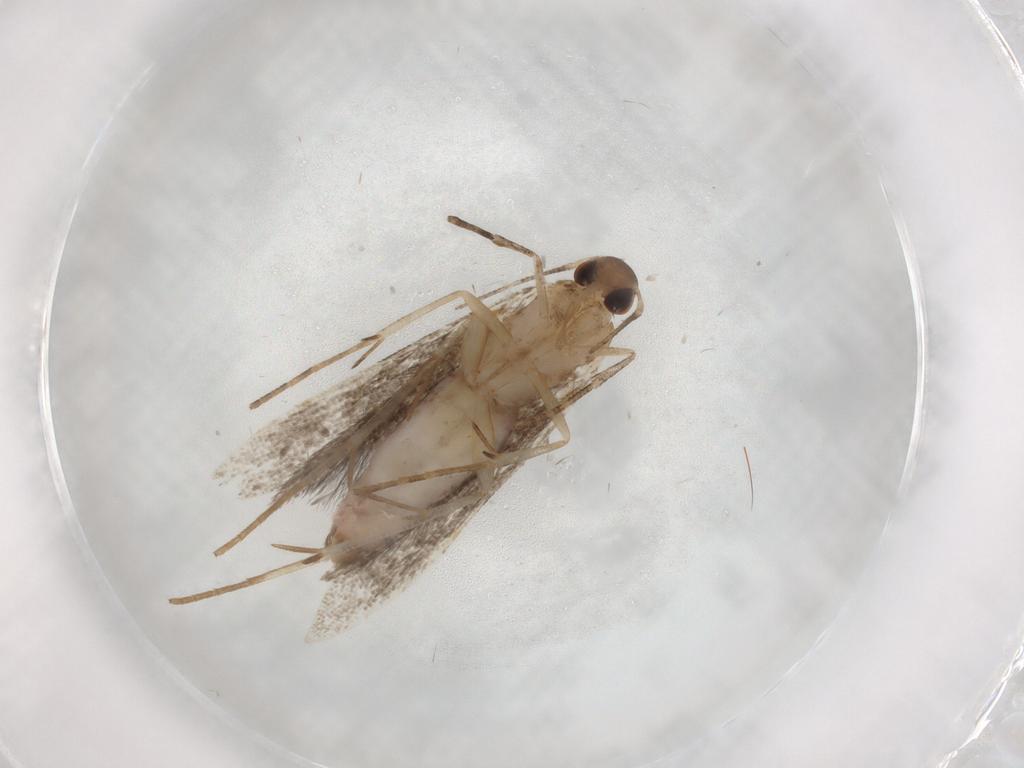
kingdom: Animalia
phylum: Arthropoda
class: Insecta
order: Lepidoptera
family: Gelechiidae
